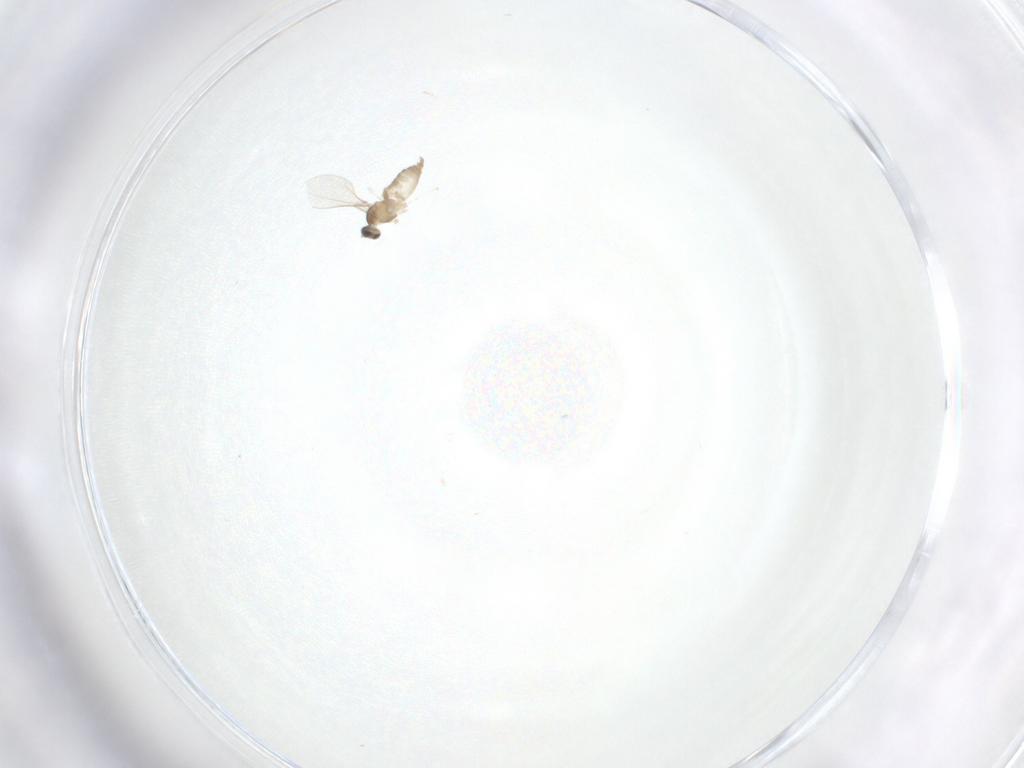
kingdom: Animalia
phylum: Arthropoda
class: Insecta
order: Diptera
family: Cecidomyiidae
